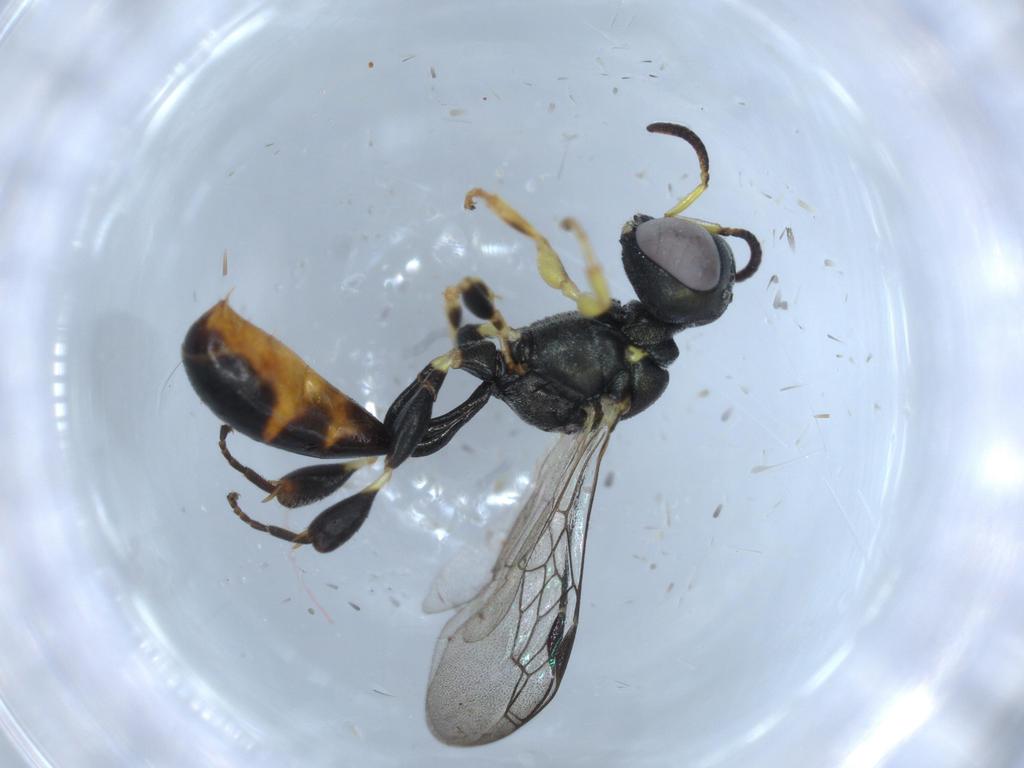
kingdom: Animalia
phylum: Arthropoda
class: Insecta
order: Hymenoptera
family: Crabronidae
